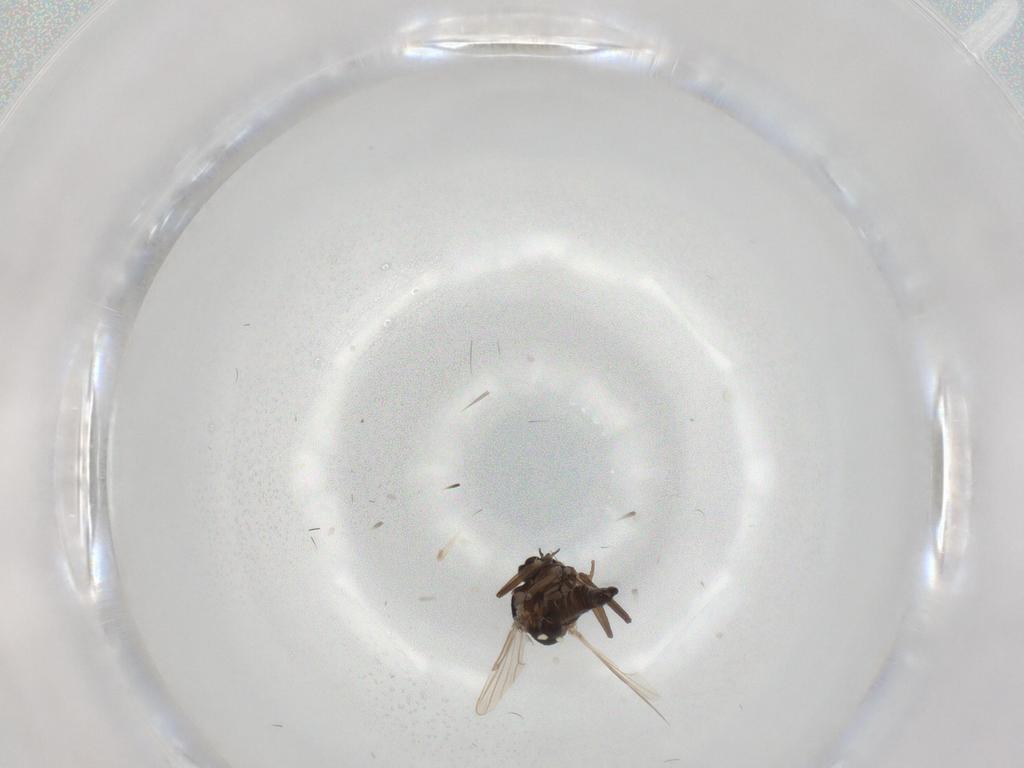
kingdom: Animalia
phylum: Arthropoda
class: Insecta
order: Diptera
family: Ceratopogonidae
